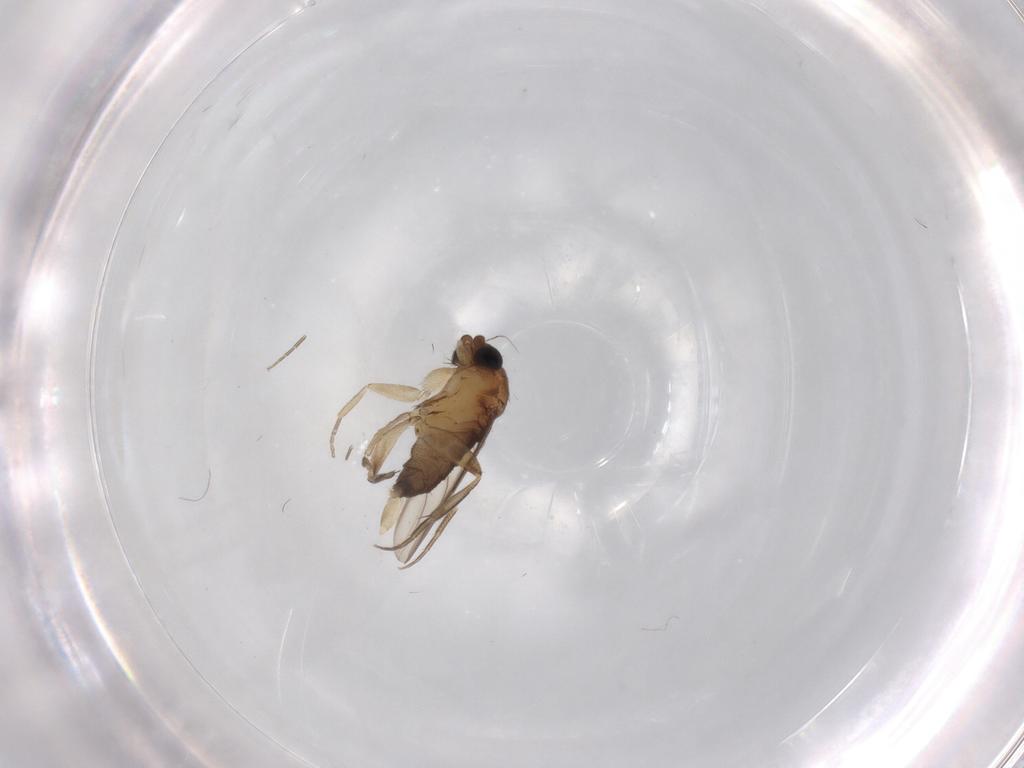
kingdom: Animalia
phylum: Arthropoda
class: Insecta
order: Diptera
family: Phoridae
